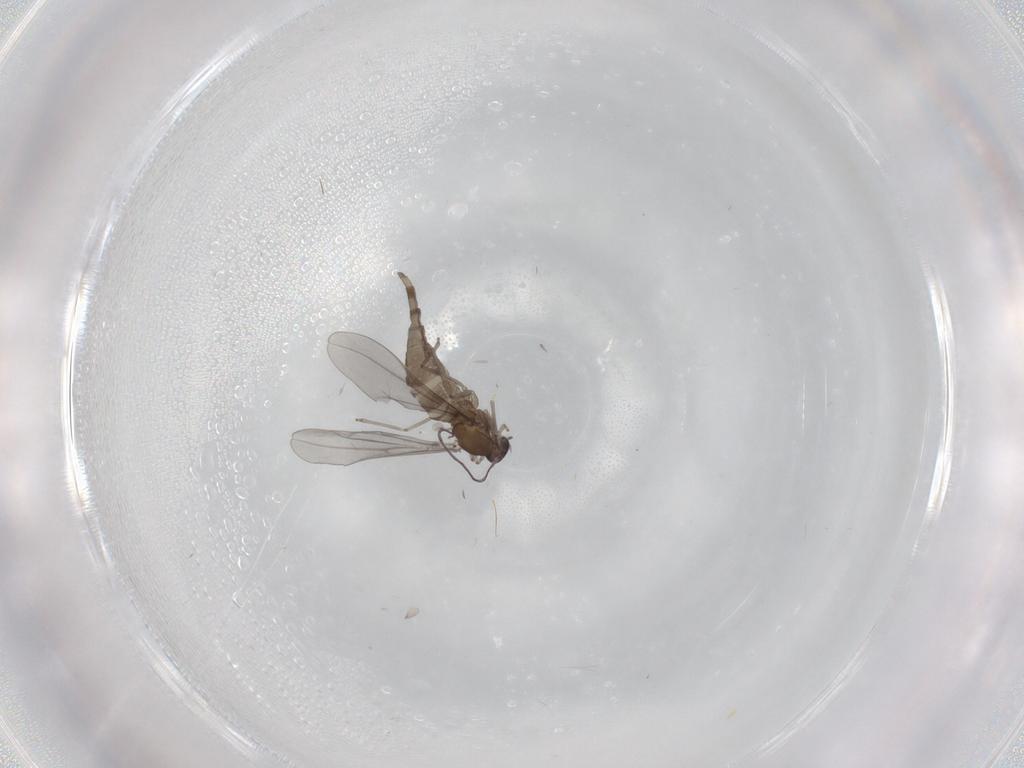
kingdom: Animalia
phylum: Arthropoda
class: Insecta
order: Diptera
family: Cecidomyiidae
